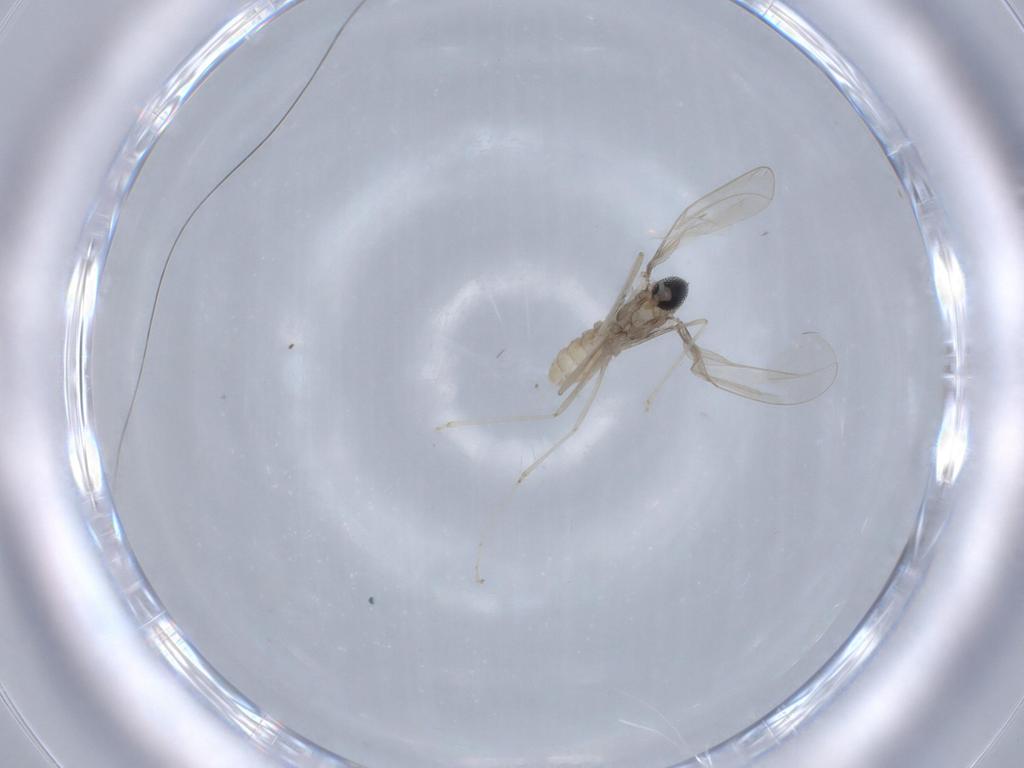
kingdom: Animalia
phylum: Arthropoda
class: Insecta
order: Diptera
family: Cecidomyiidae
